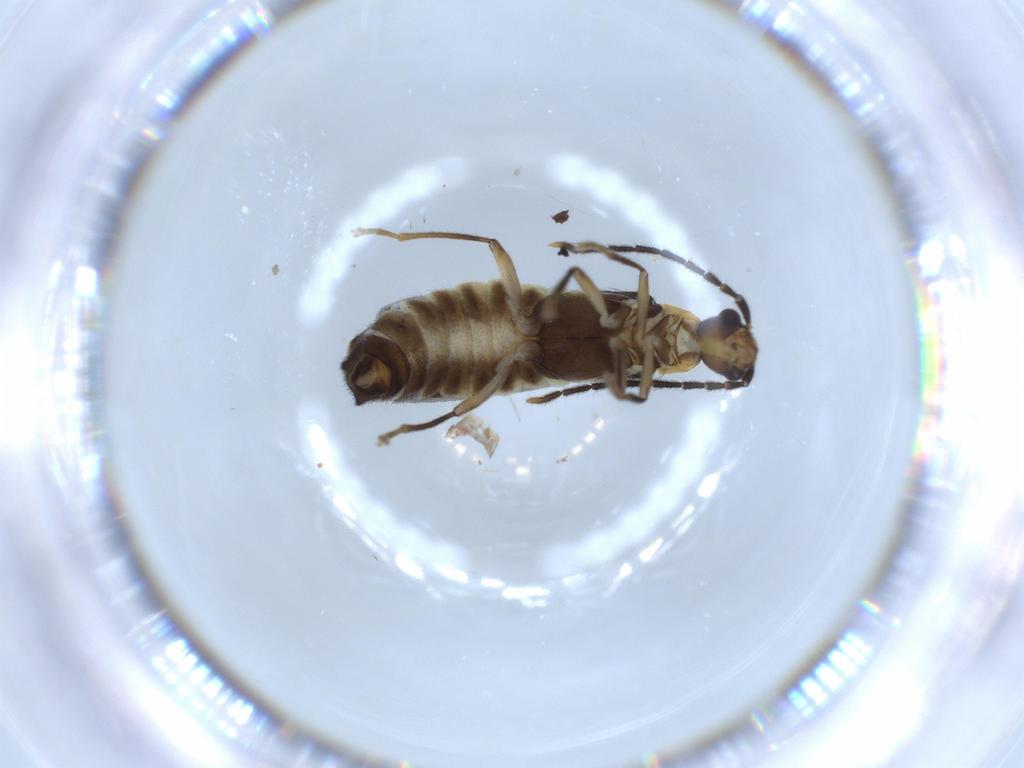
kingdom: Animalia
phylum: Arthropoda
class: Insecta
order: Coleoptera
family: Cantharidae
